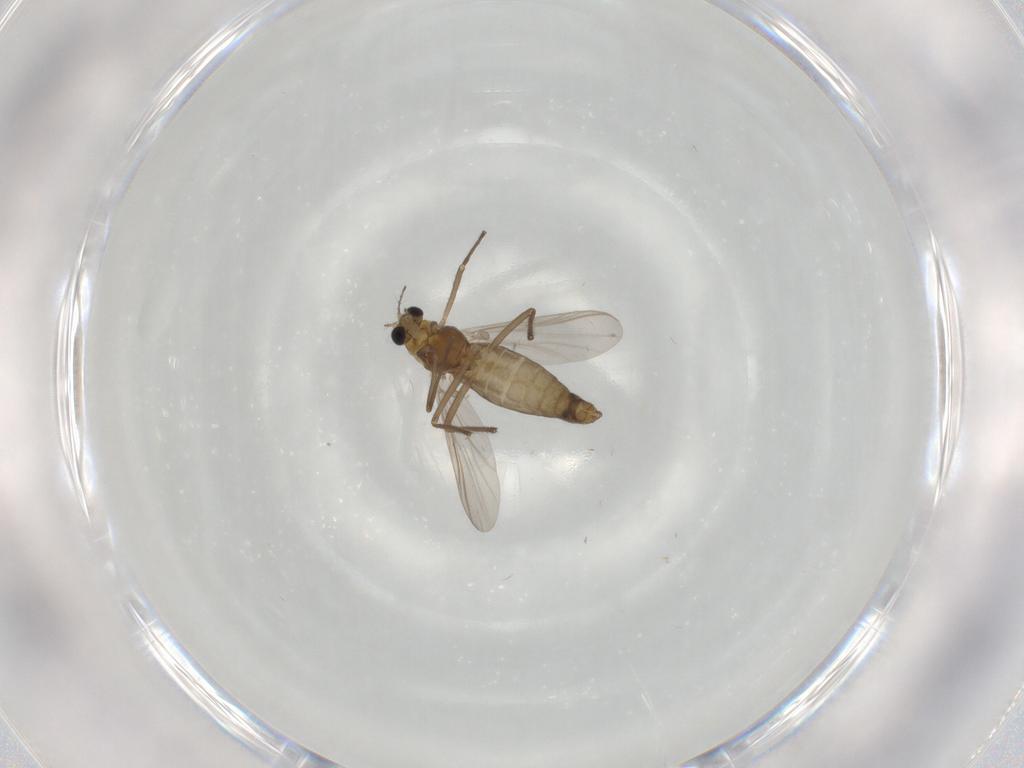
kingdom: Animalia
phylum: Arthropoda
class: Insecta
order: Diptera
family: Chironomidae
